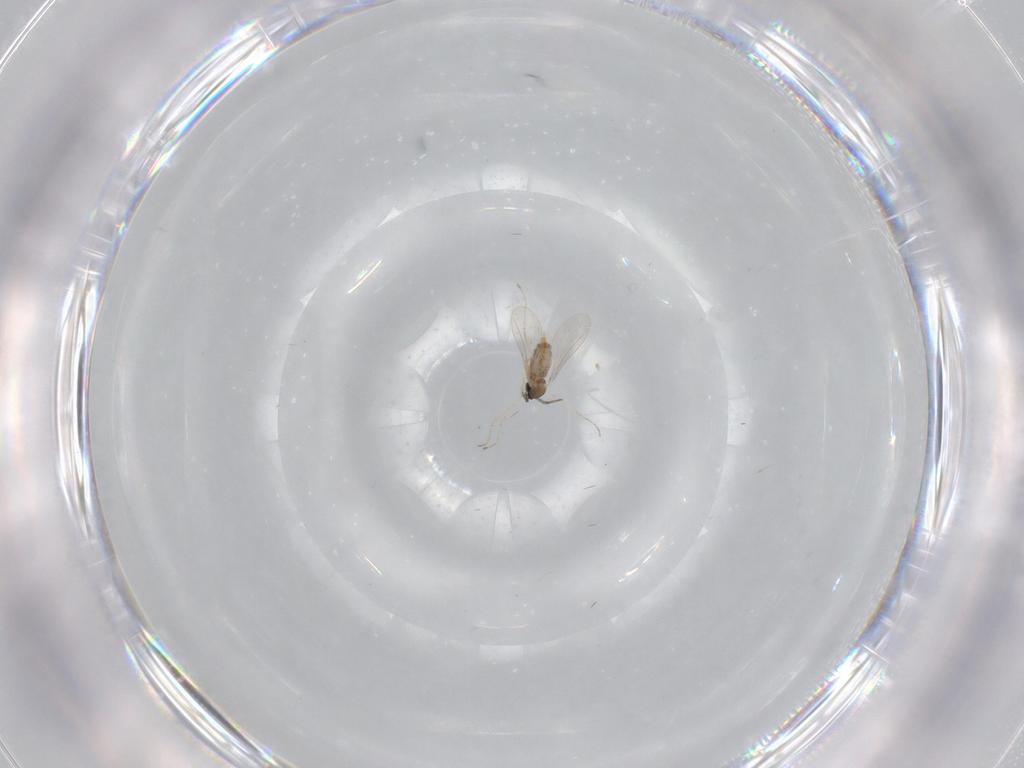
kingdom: Animalia
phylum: Arthropoda
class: Insecta
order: Diptera
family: Cecidomyiidae
